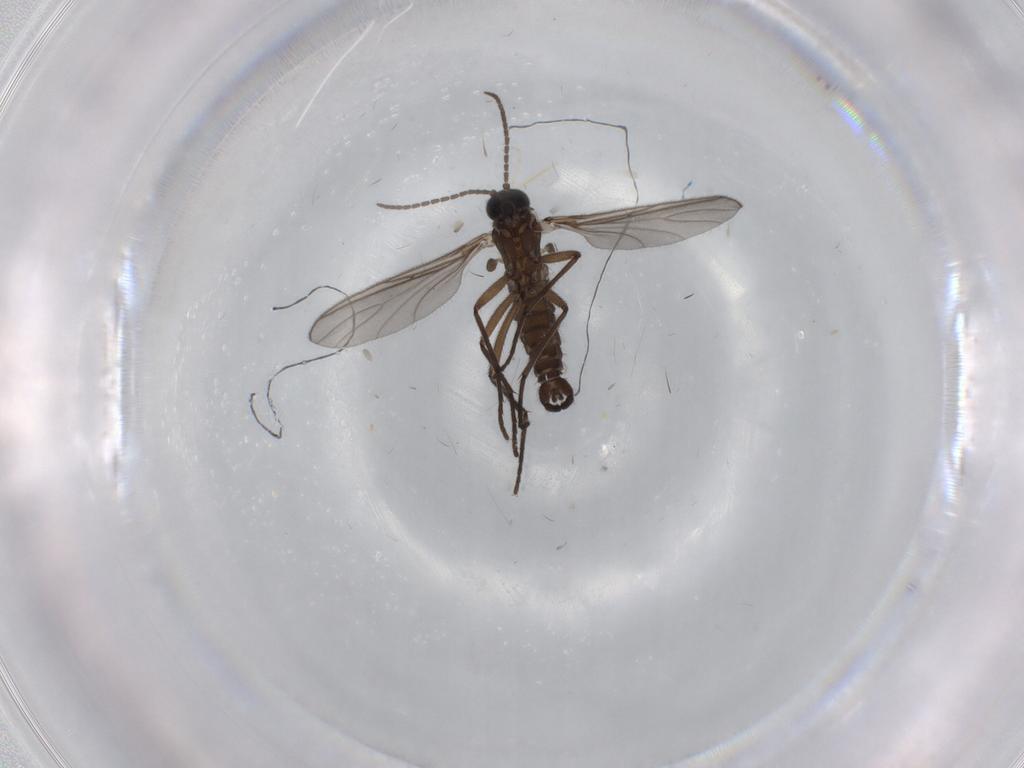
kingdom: Animalia
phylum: Arthropoda
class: Insecta
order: Diptera
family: Sciaridae
